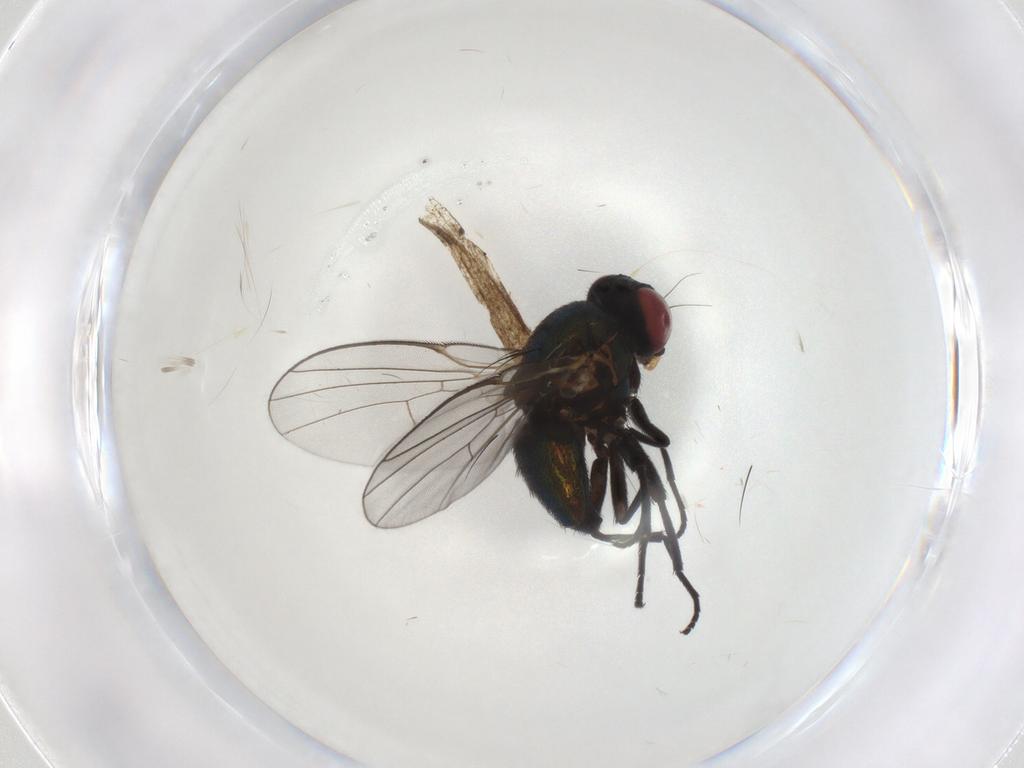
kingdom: Animalia
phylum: Arthropoda
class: Insecta
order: Diptera
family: Agromyzidae
